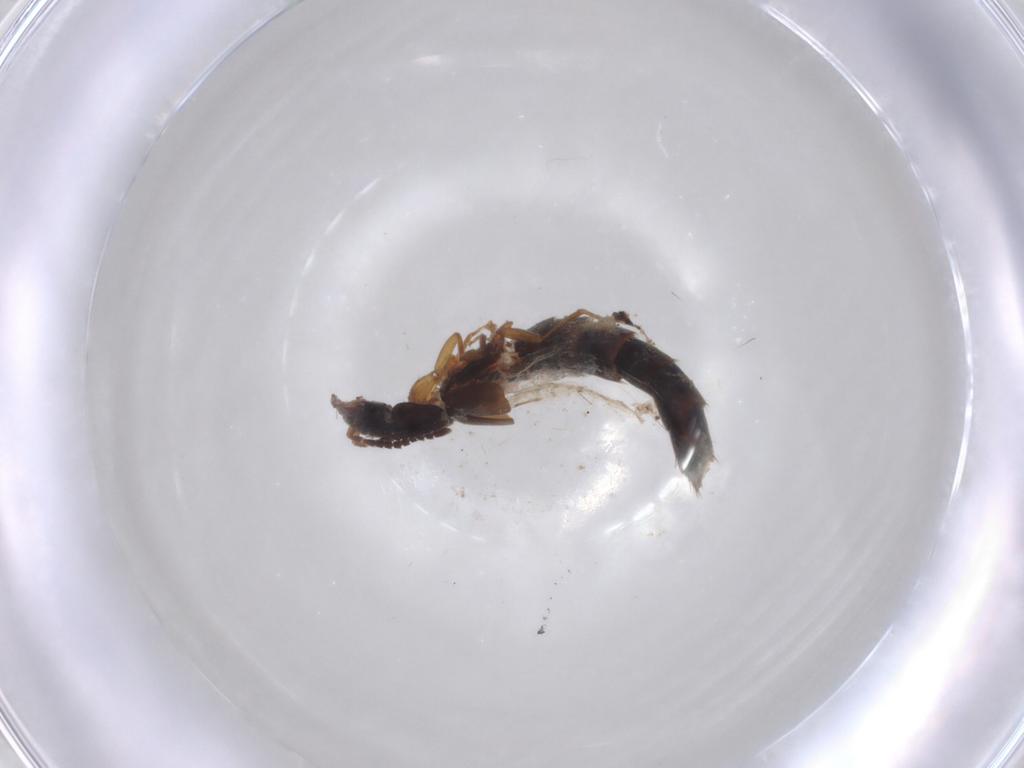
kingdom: Animalia
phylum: Arthropoda
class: Insecta
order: Coleoptera
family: Staphylinidae
